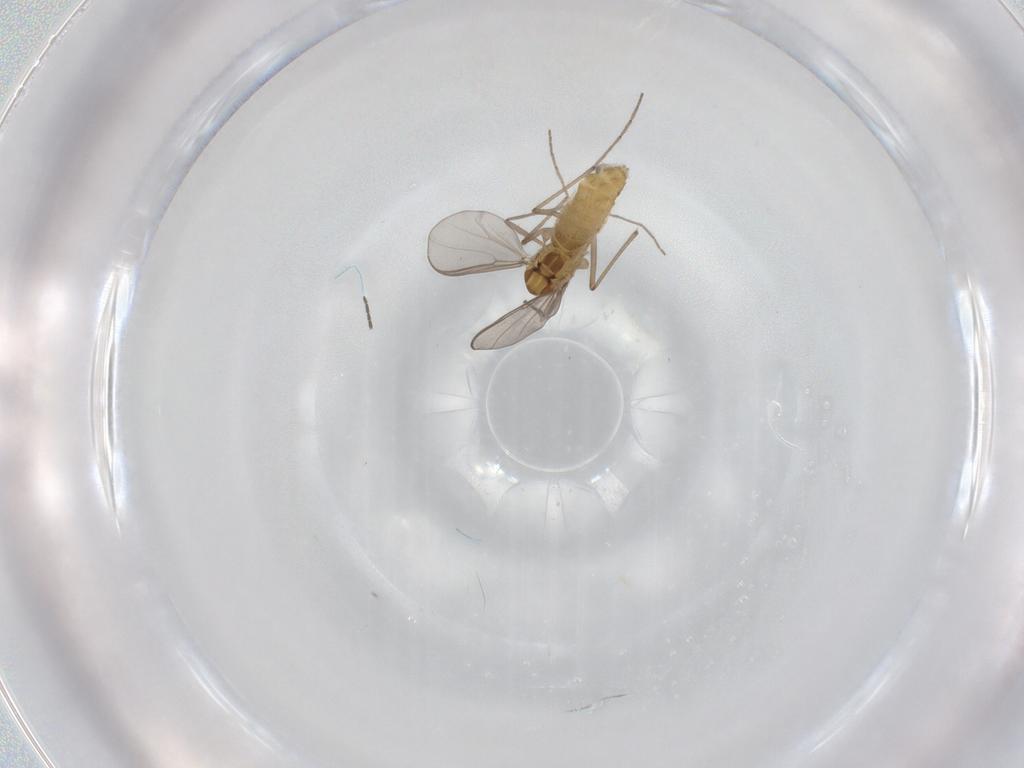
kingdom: Animalia
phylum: Arthropoda
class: Insecta
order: Diptera
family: Chironomidae
